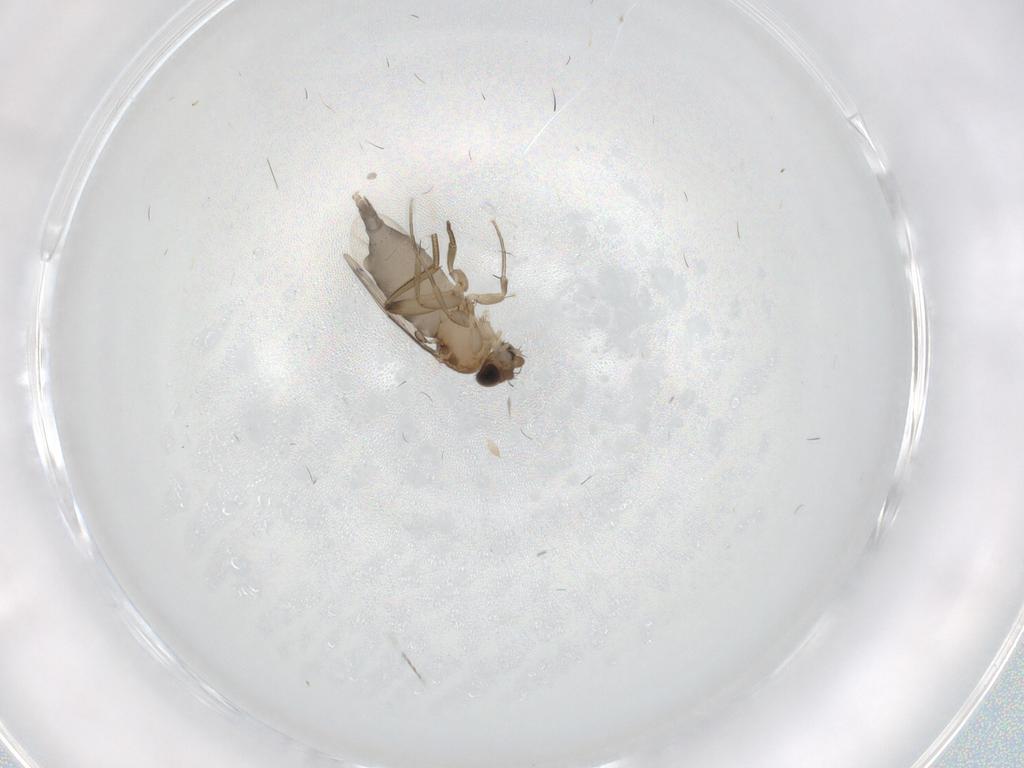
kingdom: Animalia
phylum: Arthropoda
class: Insecta
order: Diptera
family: Phoridae
